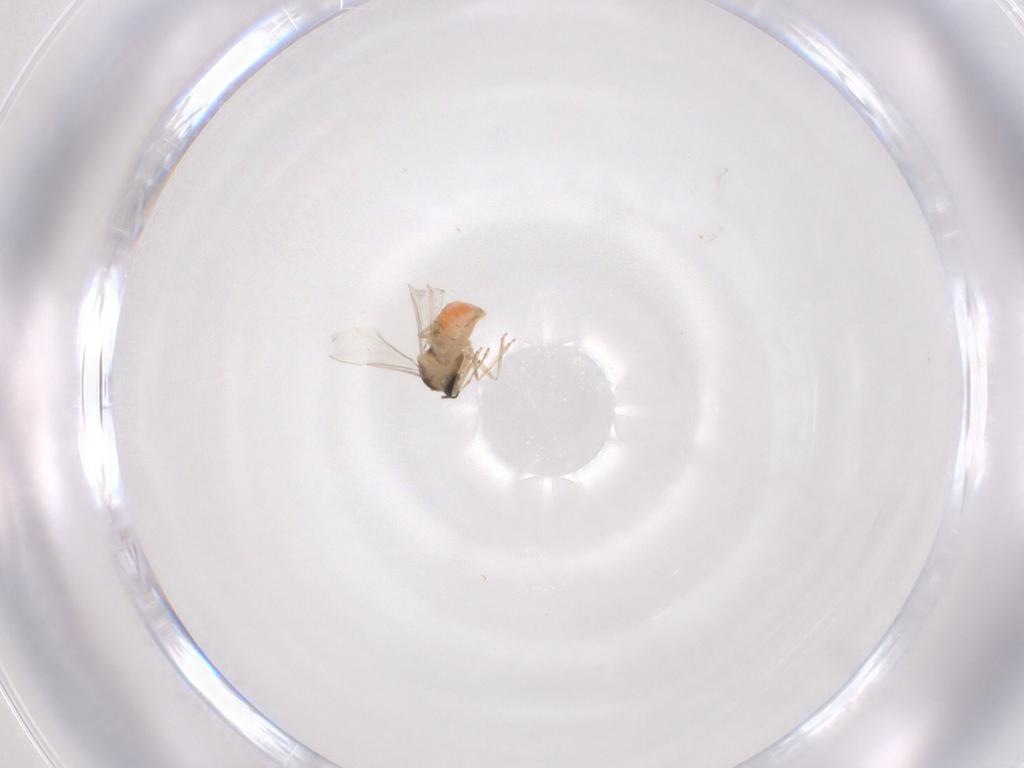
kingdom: Animalia
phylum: Arthropoda
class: Insecta
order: Diptera
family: Cecidomyiidae
